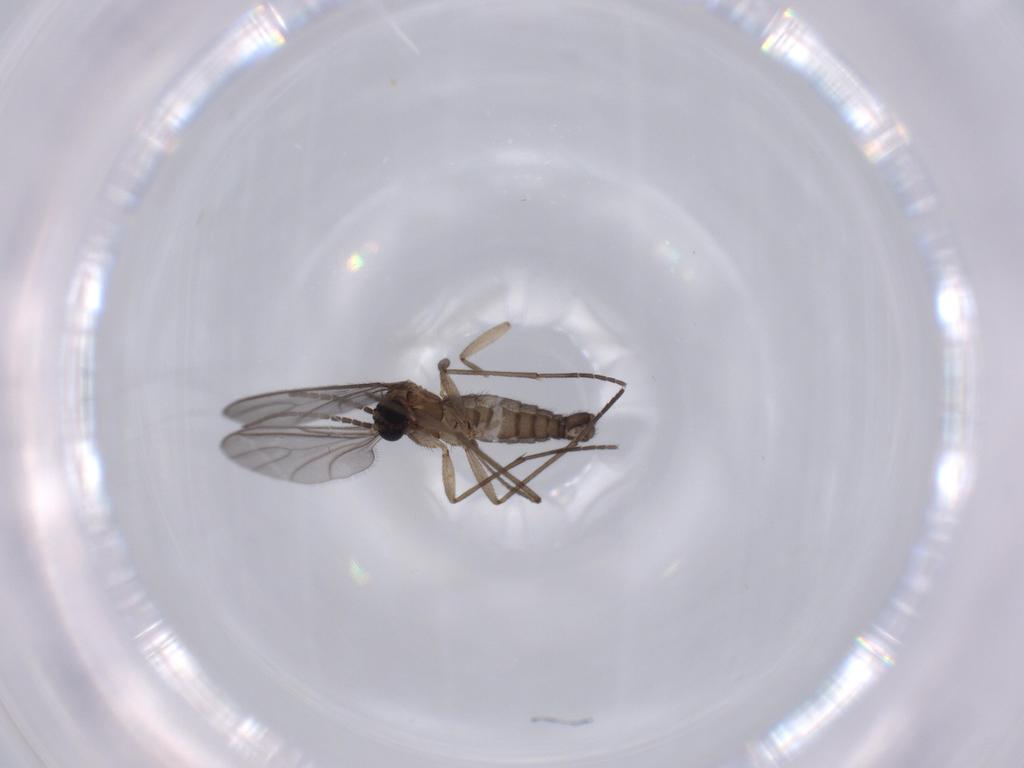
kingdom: Animalia
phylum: Arthropoda
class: Insecta
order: Diptera
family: Sciaridae
